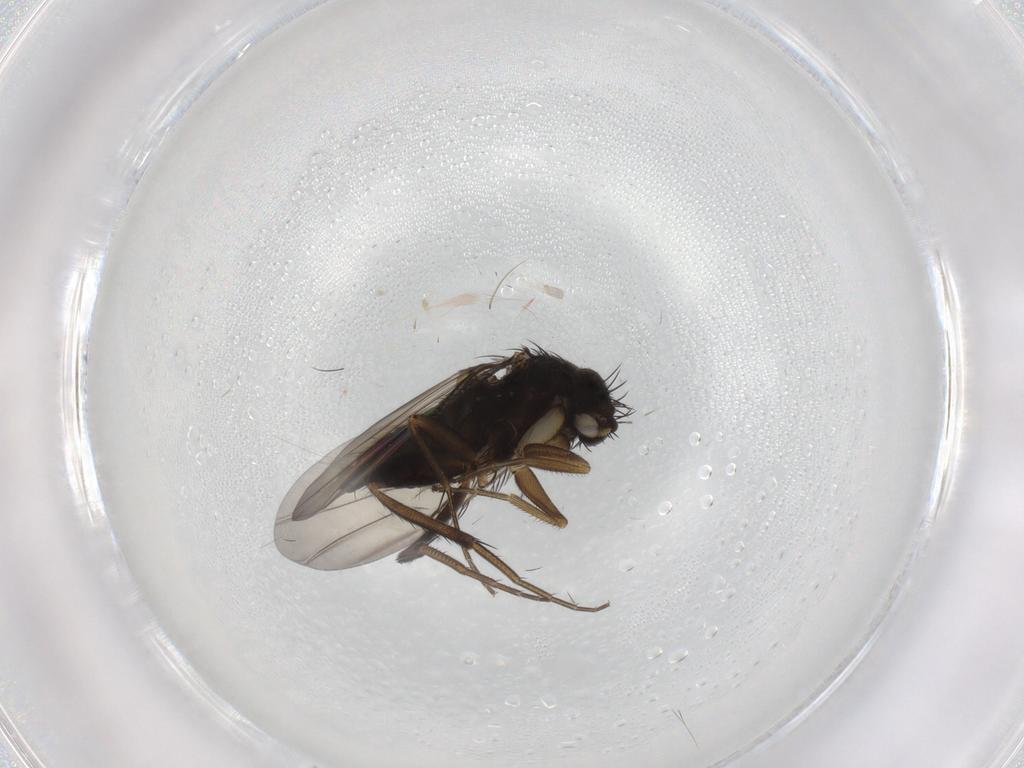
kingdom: Animalia
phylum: Arthropoda
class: Insecta
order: Diptera
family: Phoridae
